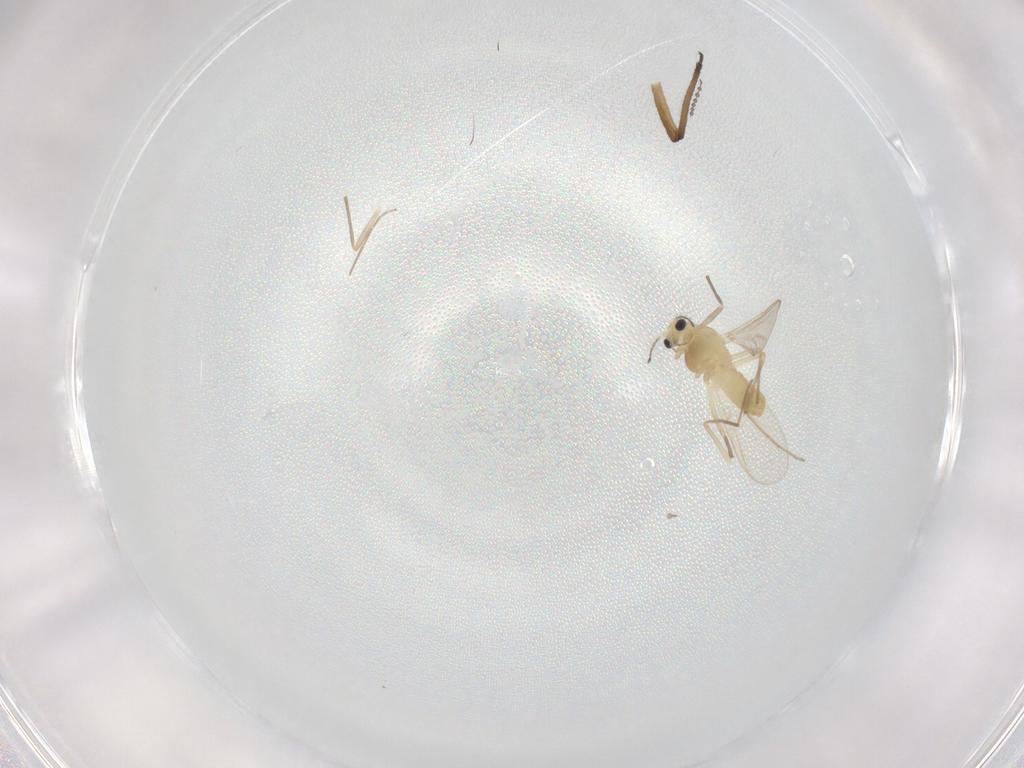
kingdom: Animalia
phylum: Arthropoda
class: Insecta
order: Diptera
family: Chironomidae
